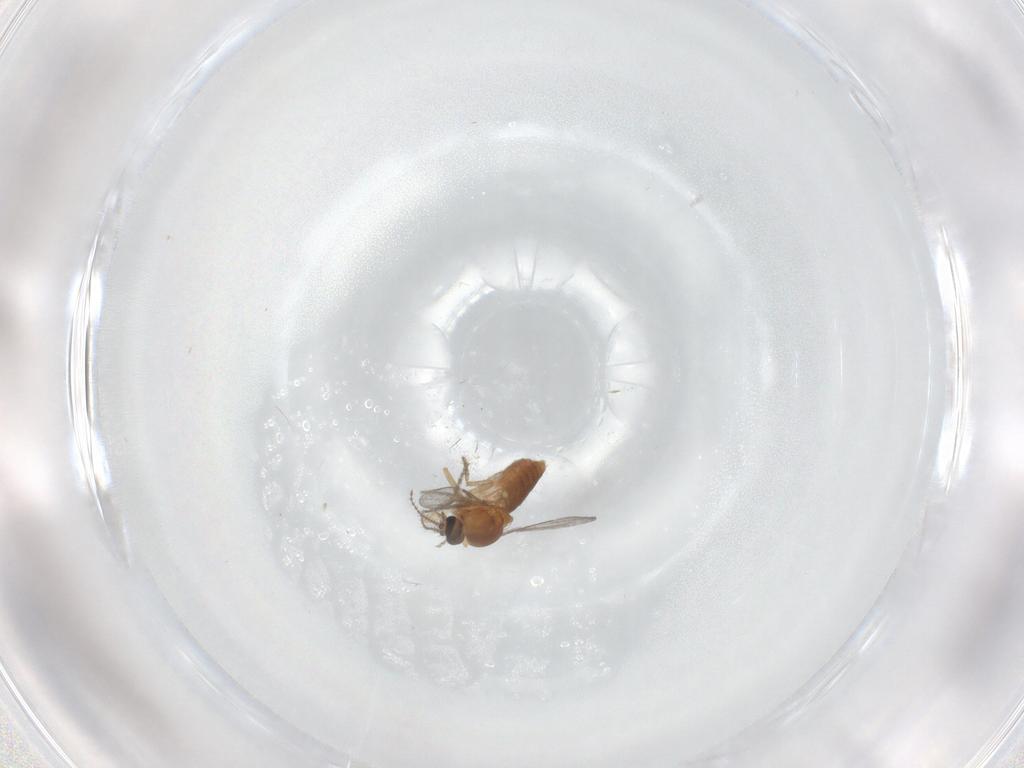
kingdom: Animalia
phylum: Arthropoda
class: Insecta
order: Diptera
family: Ceratopogonidae
